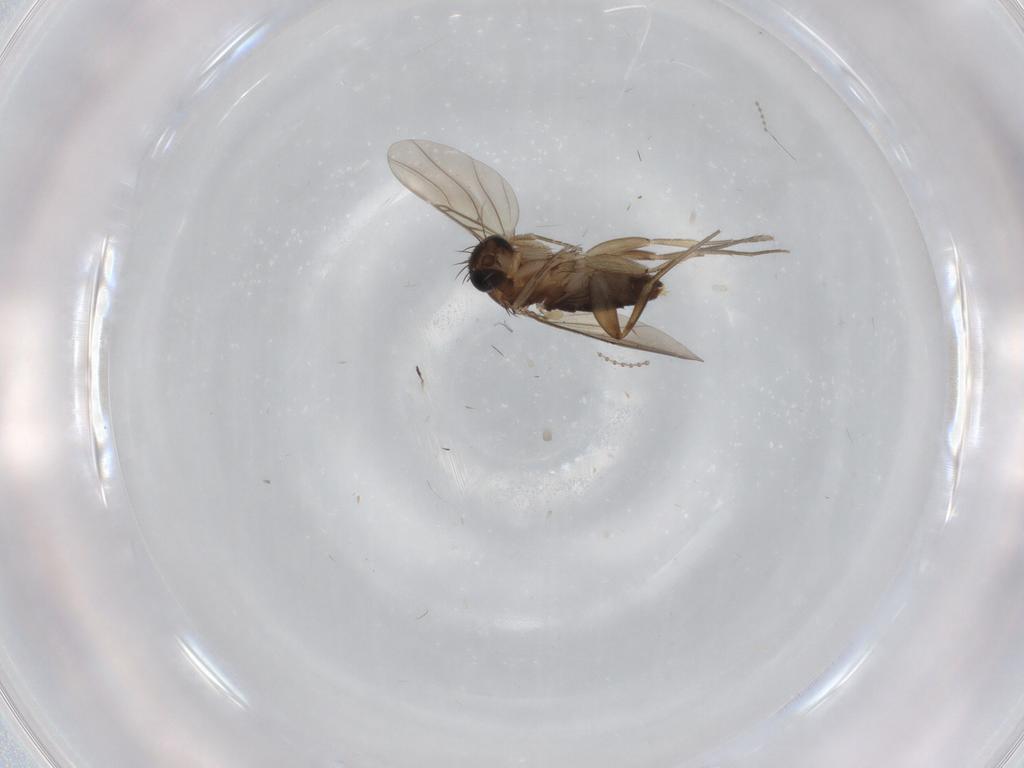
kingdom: Animalia
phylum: Arthropoda
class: Insecta
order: Diptera
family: Phoridae
